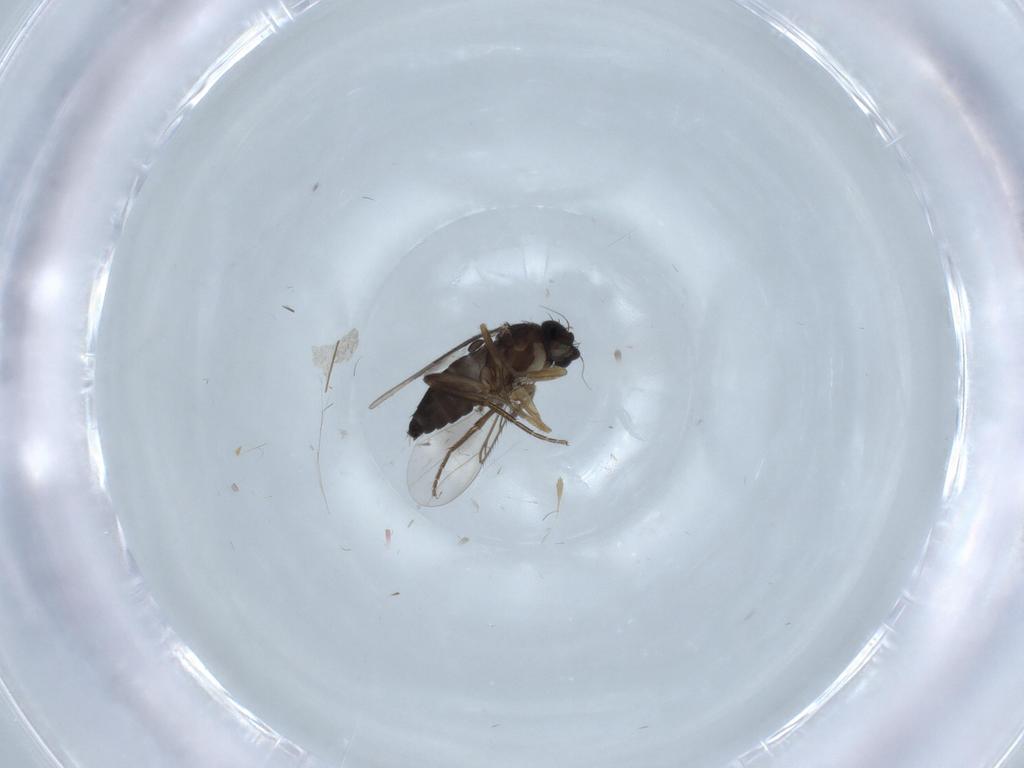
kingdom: Animalia
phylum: Arthropoda
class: Insecta
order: Diptera
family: Phoridae
